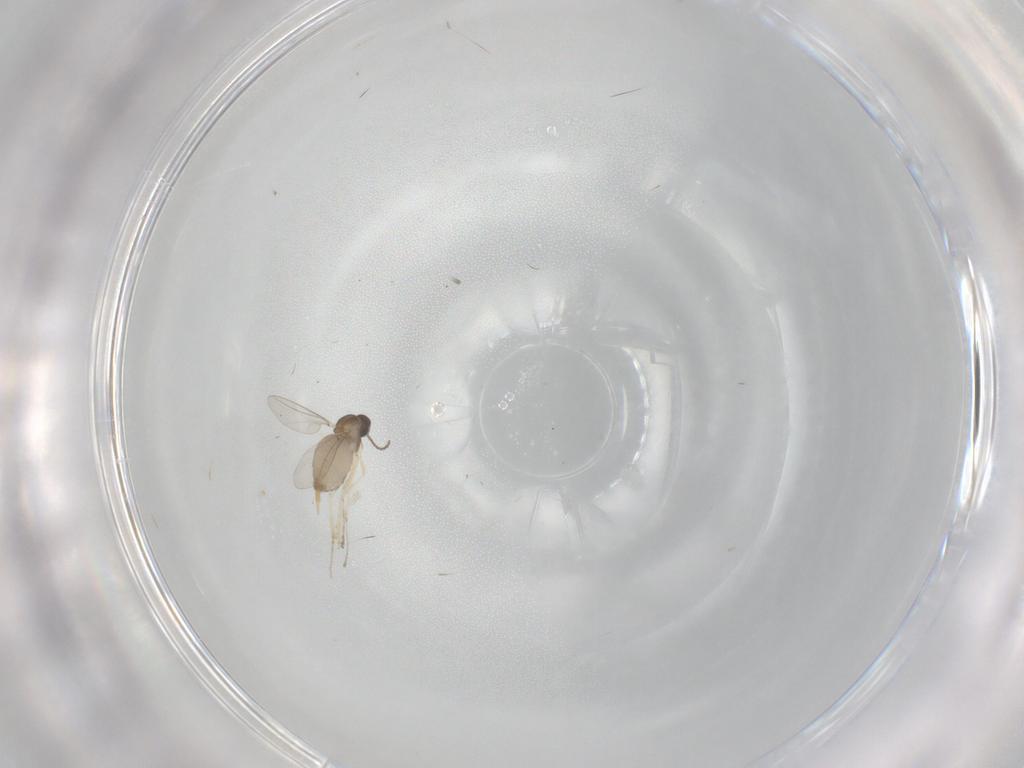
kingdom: Animalia
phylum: Arthropoda
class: Insecta
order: Diptera
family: Cecidomyiidae
